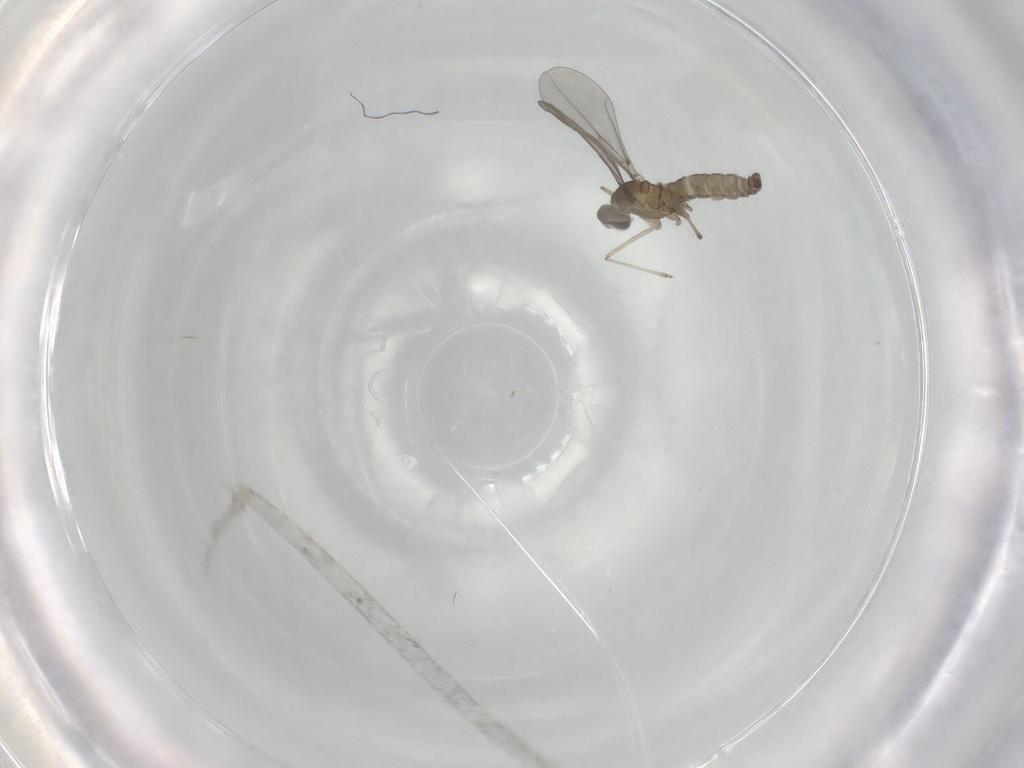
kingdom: Animalia
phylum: Arthropoda
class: Insecta
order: Diptera
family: Cecidomyiidae
